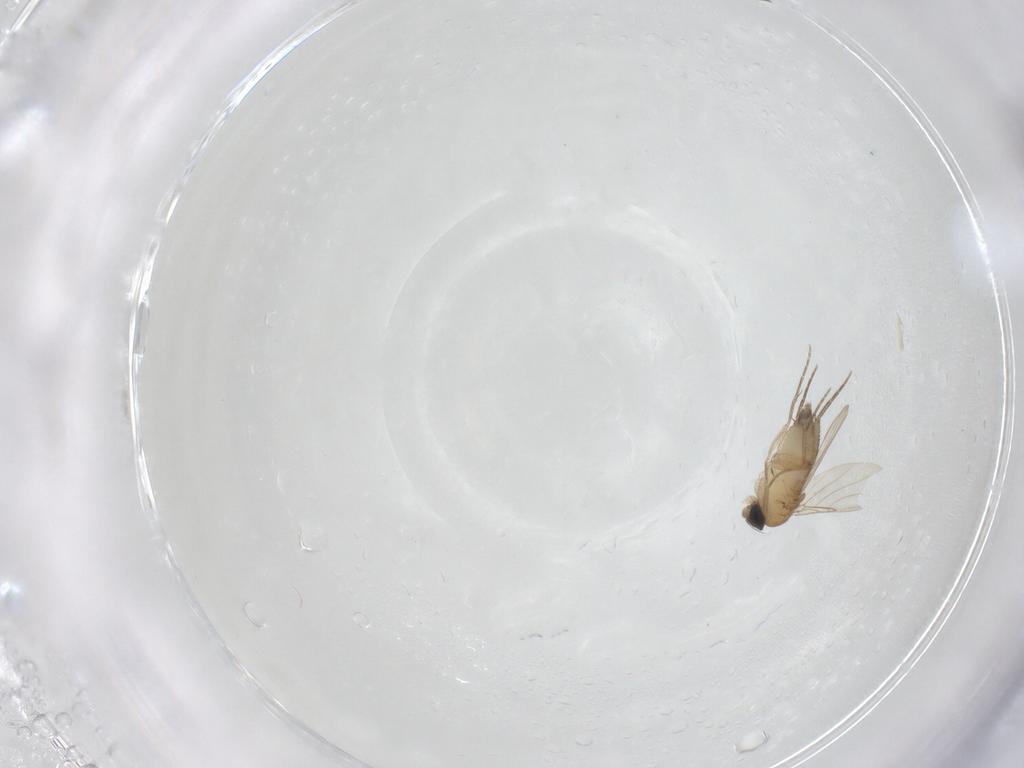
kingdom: Animalia
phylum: Arthropoda
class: Insecta
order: Diptera
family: Phoridae
